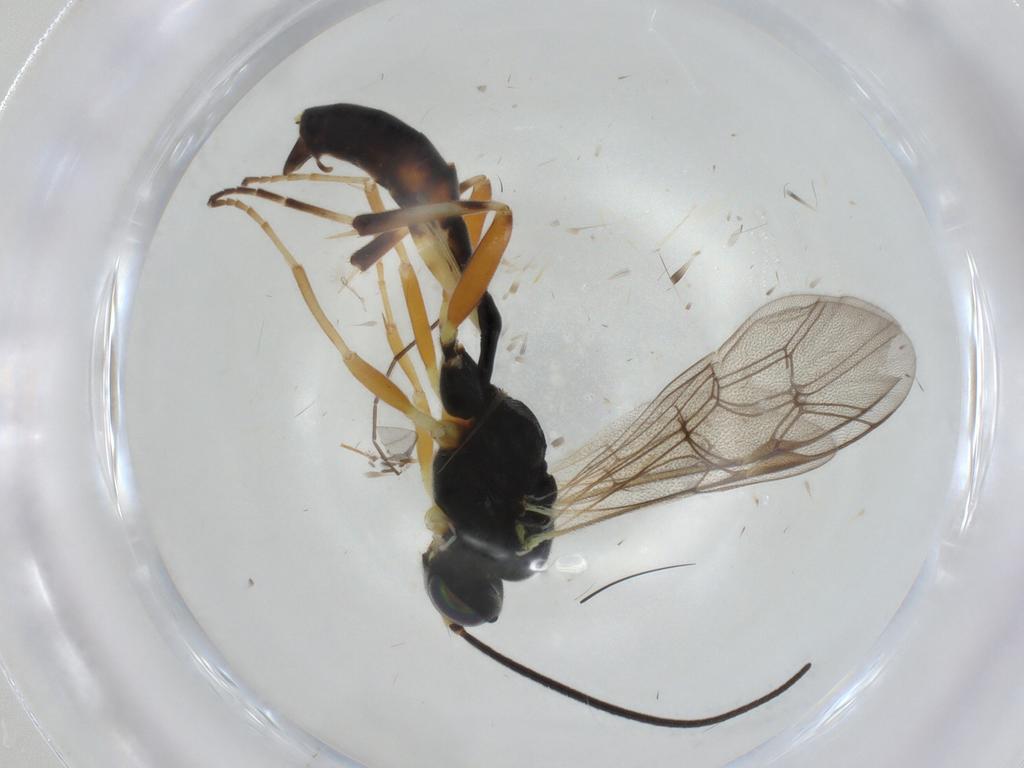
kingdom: Animalia
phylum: Arthropoda
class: Insecta
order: Hymenoptera
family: Ichneumonidae
